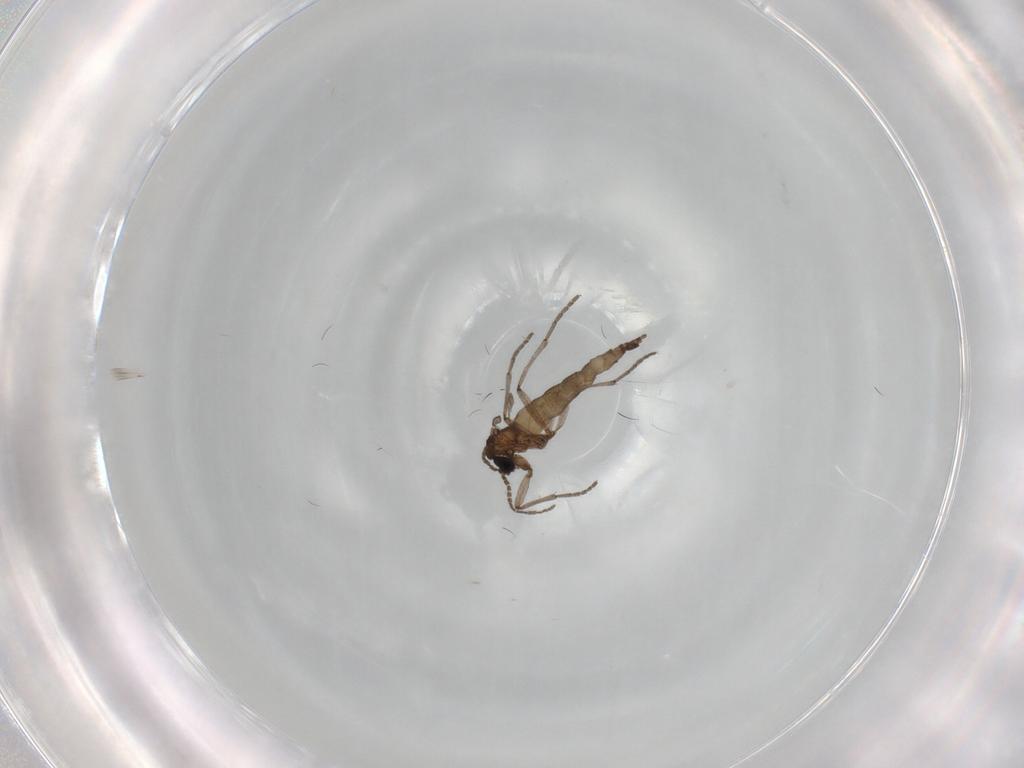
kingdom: Animalia
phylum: Arthropoda
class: Insecta
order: Diptera
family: Sciaridae
